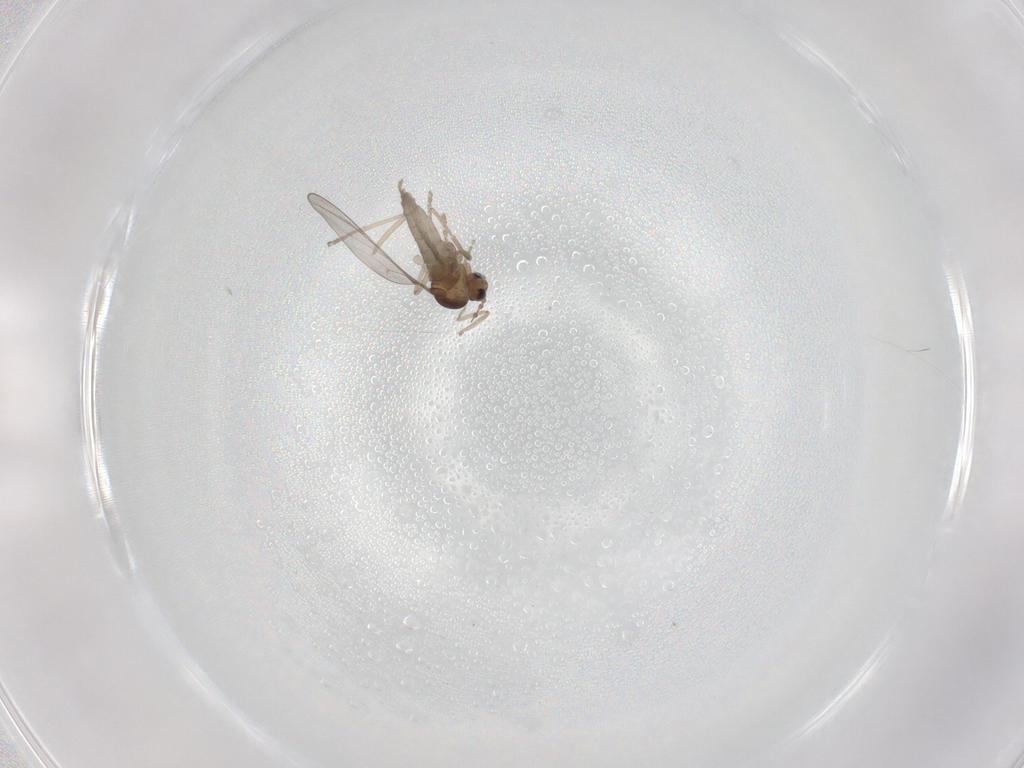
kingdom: Animalia
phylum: Arthropoda
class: Insecta
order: Diptera
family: Cecidomyiidae
